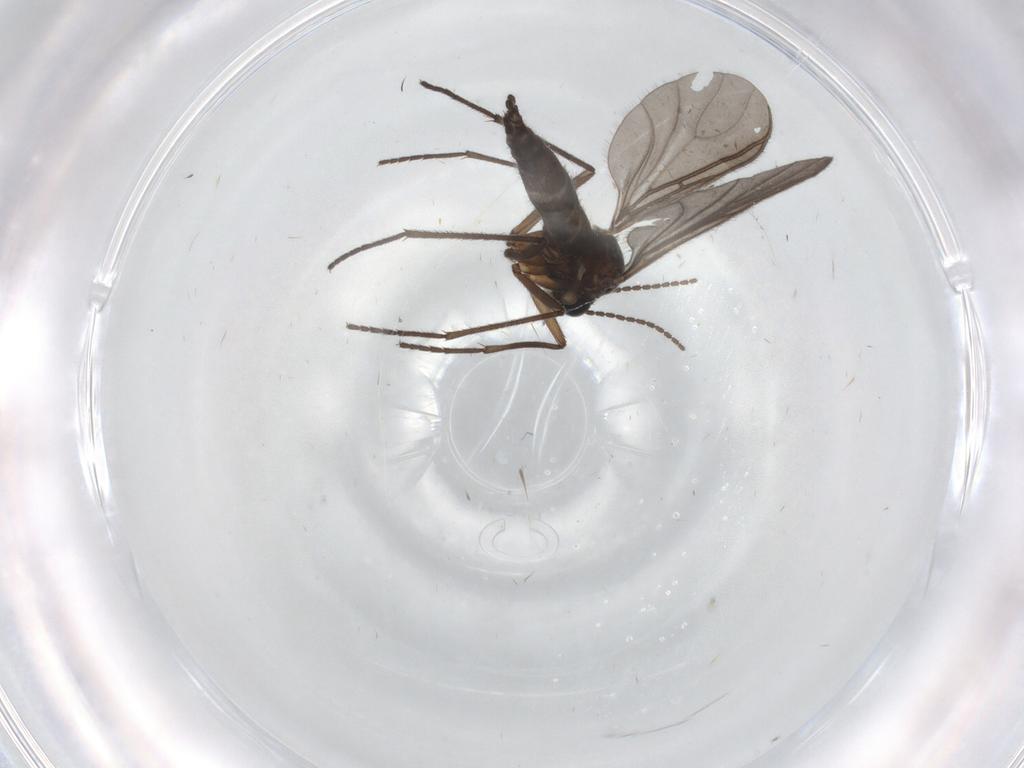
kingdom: Animalia
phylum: Arthropoda
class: Insecta
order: Diptera
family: Sciaridae
